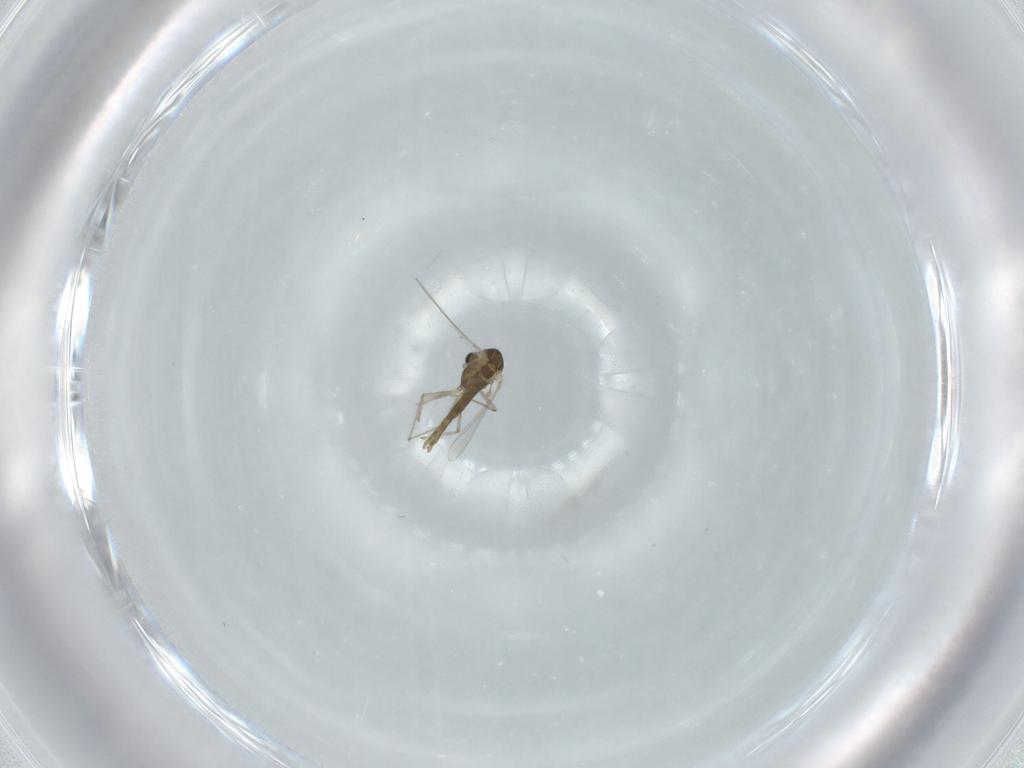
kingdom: Animalia
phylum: Arthropoda
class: Insecta
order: Diptera
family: Chironomidae
